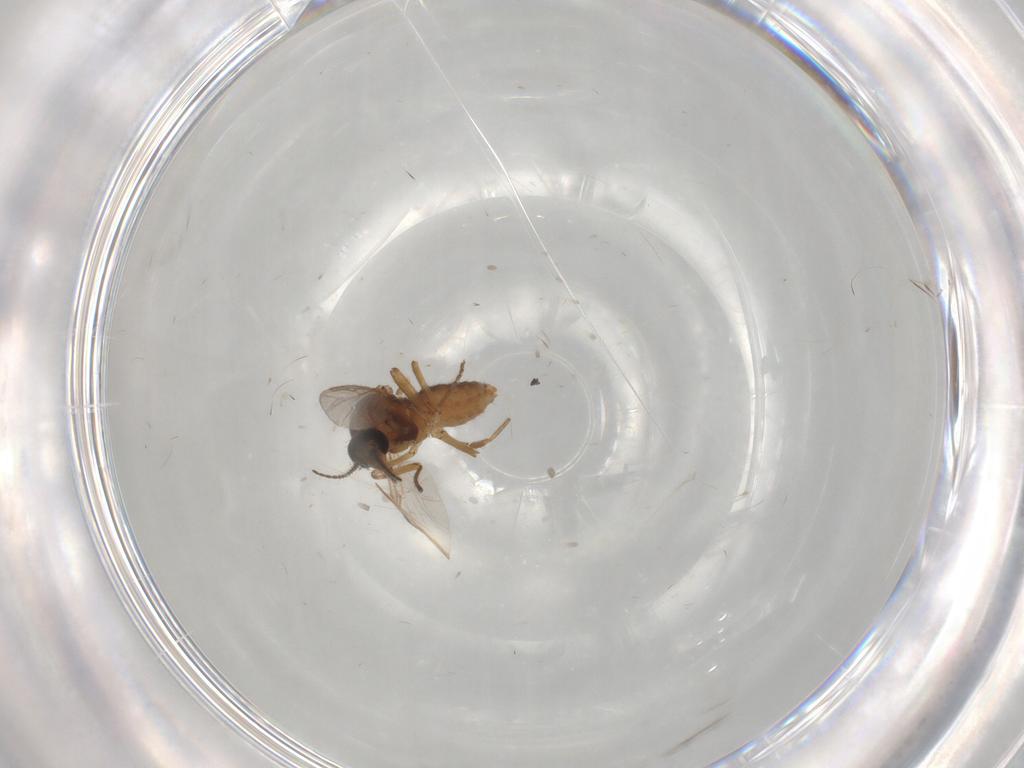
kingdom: Animalia
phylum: Arthropoda
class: Insecta
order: Diptera
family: Ceratopogonidae
